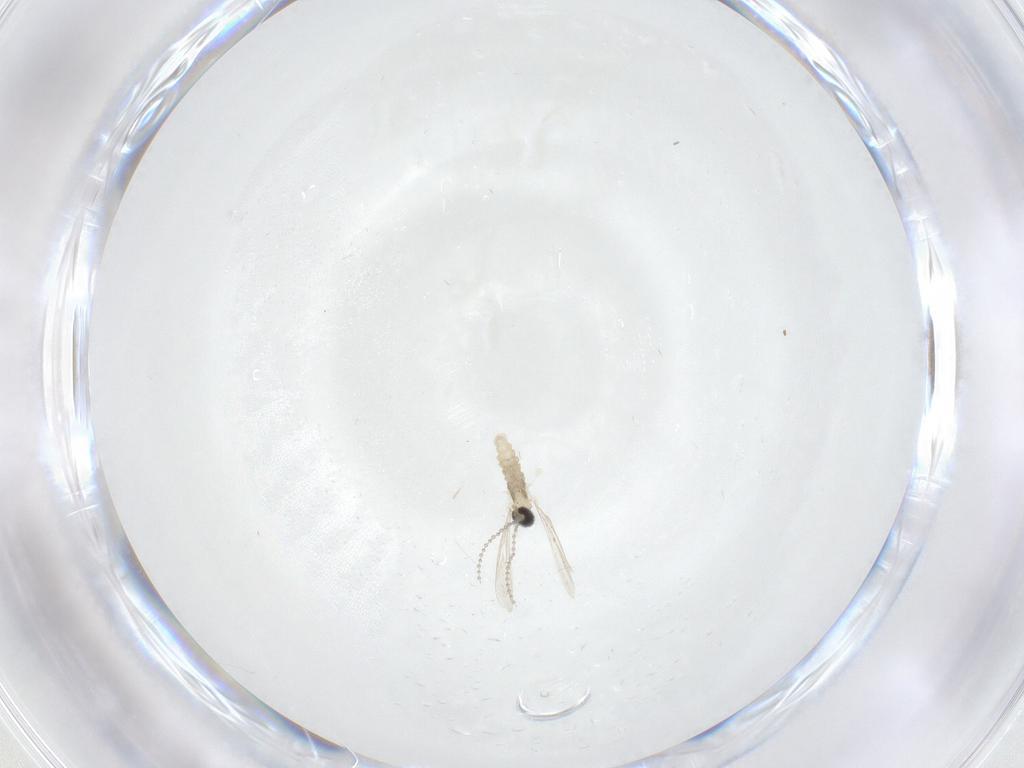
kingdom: Animalia
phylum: Arthropoda
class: Insecta
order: Diptera
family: Cecidomyiidae
